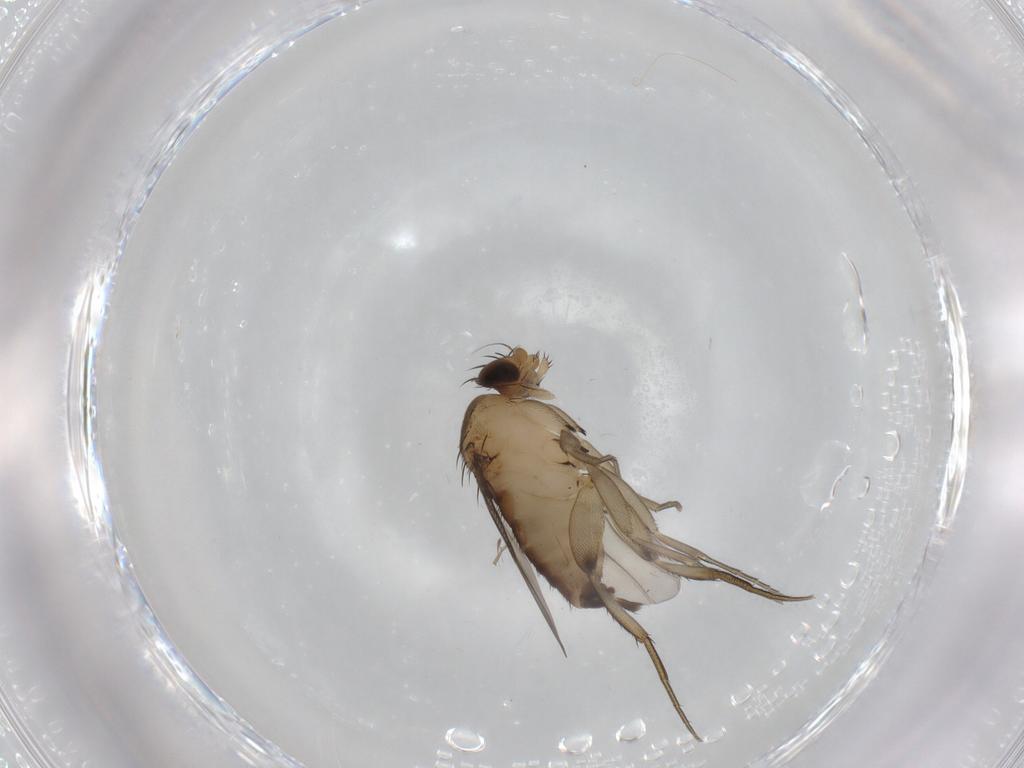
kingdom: Animalia
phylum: Arthropoda
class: Insecta
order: Diptera
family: Phoridae
